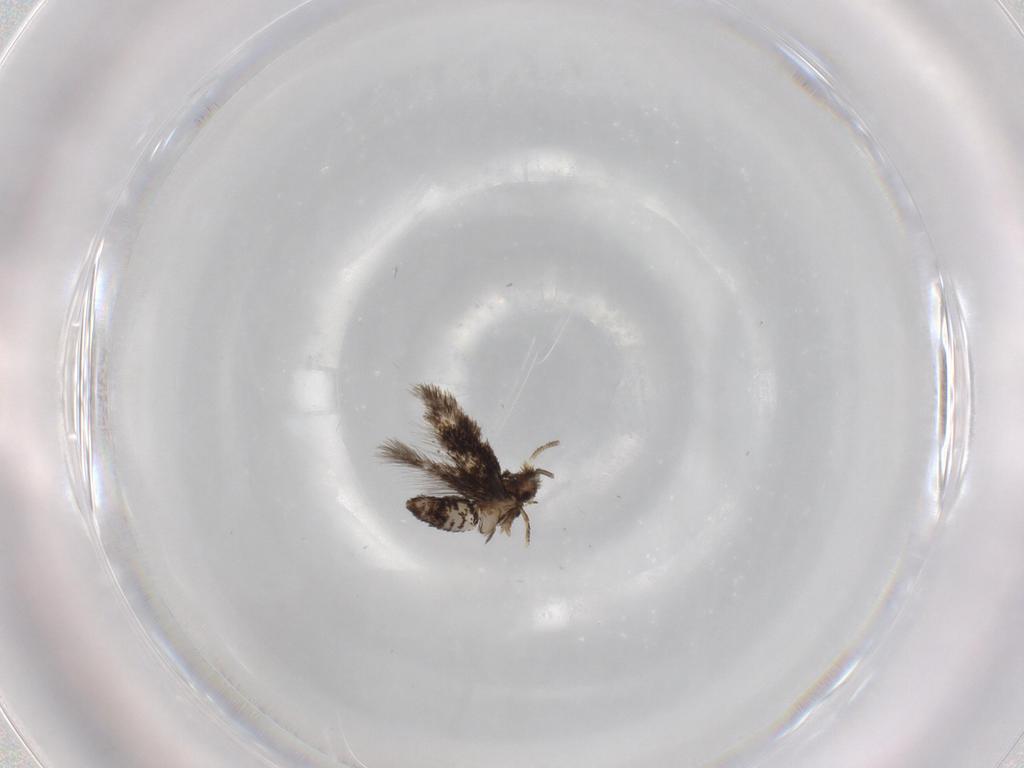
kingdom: Animalia
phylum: Arthropoda
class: Insecta
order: Lepidoptera
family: Nepticulidae
